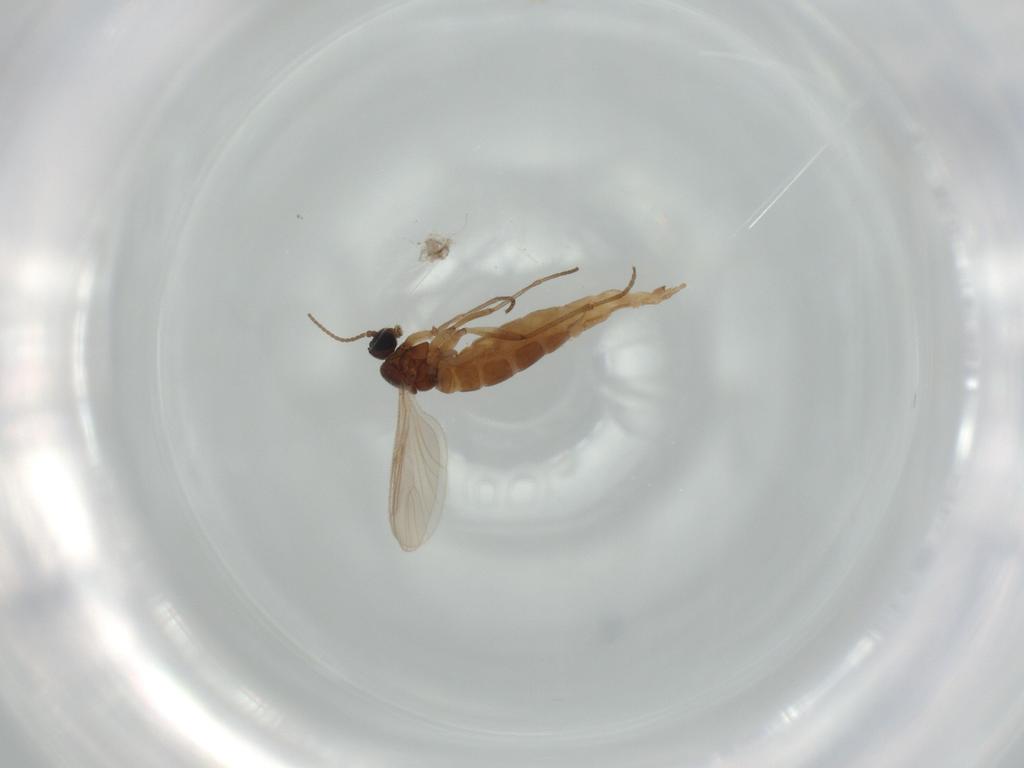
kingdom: Animalia
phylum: Arthropoda
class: Insecta
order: Diptera
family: Sciaridae
